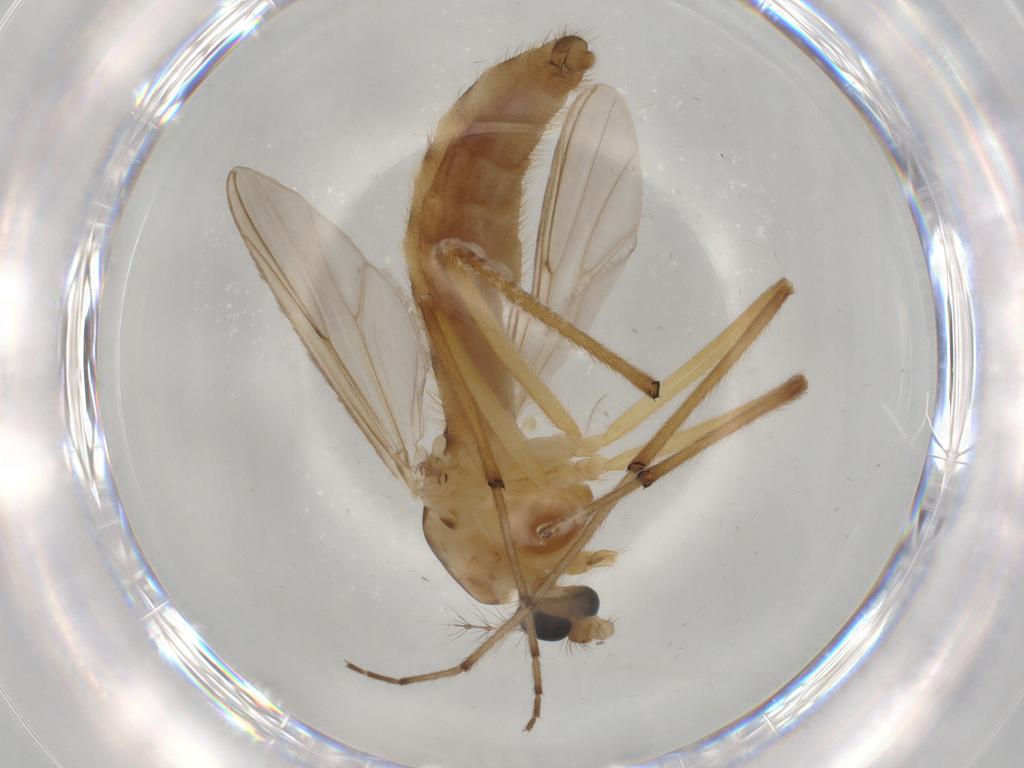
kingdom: Animalia
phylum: Arthropoda
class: Insecta
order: Diptera
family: Chironomidae
